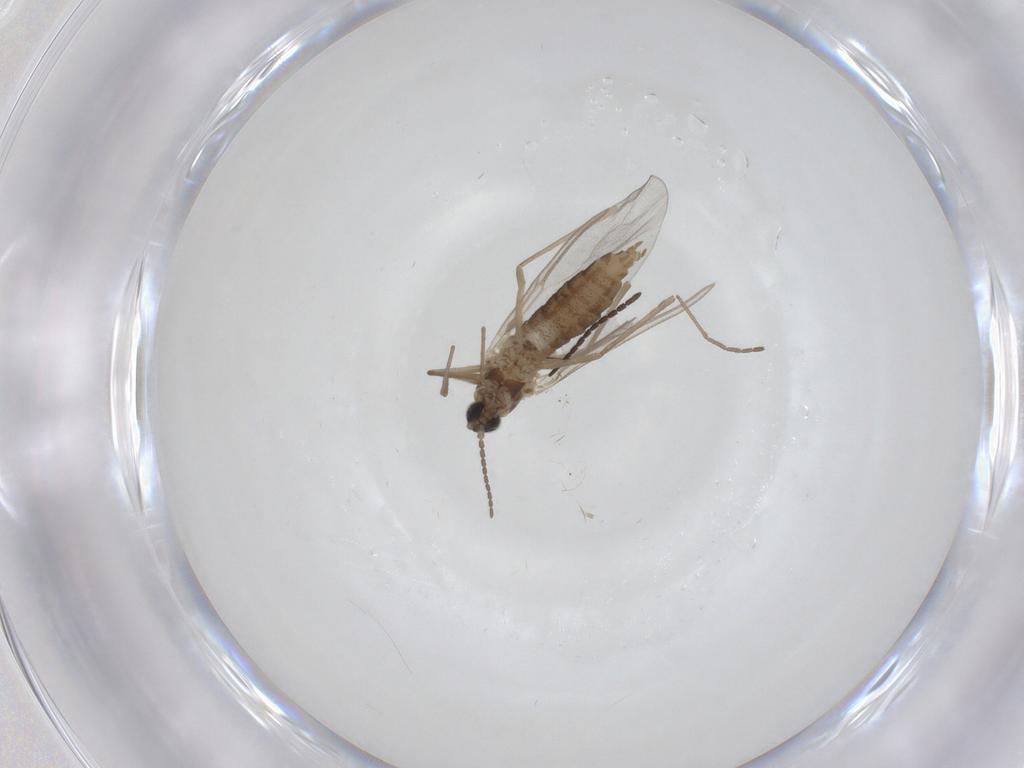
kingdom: Animalia
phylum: Arthropoda
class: Insecta
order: Diptera
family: Cecidomyiidae
